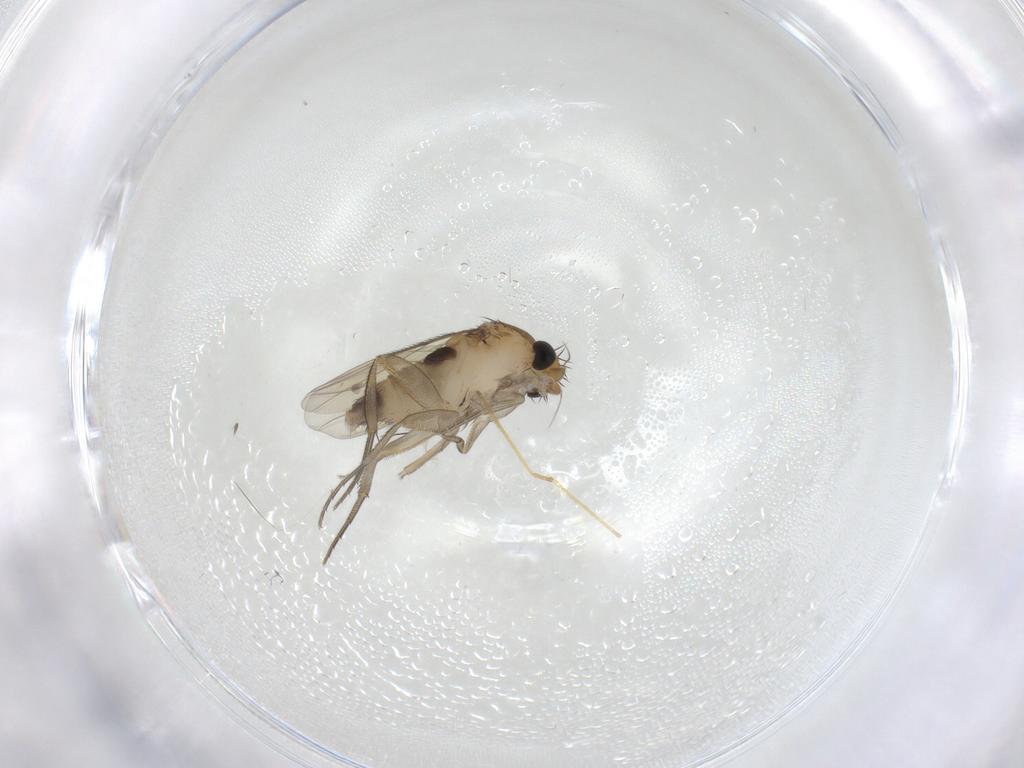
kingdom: Animalia
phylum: Arthropoda
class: Insecta
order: Diptera
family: Phoridae
